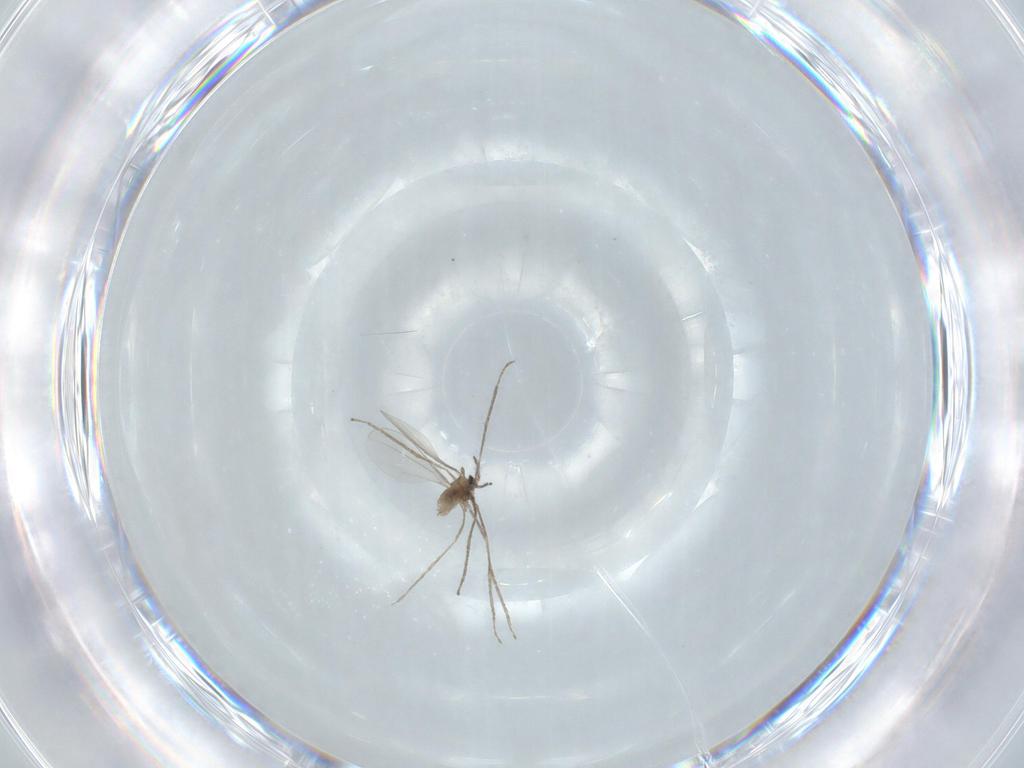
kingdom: Animalia
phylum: Arthropoda
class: Insecta
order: Diptera
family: Cecidomyiidae
